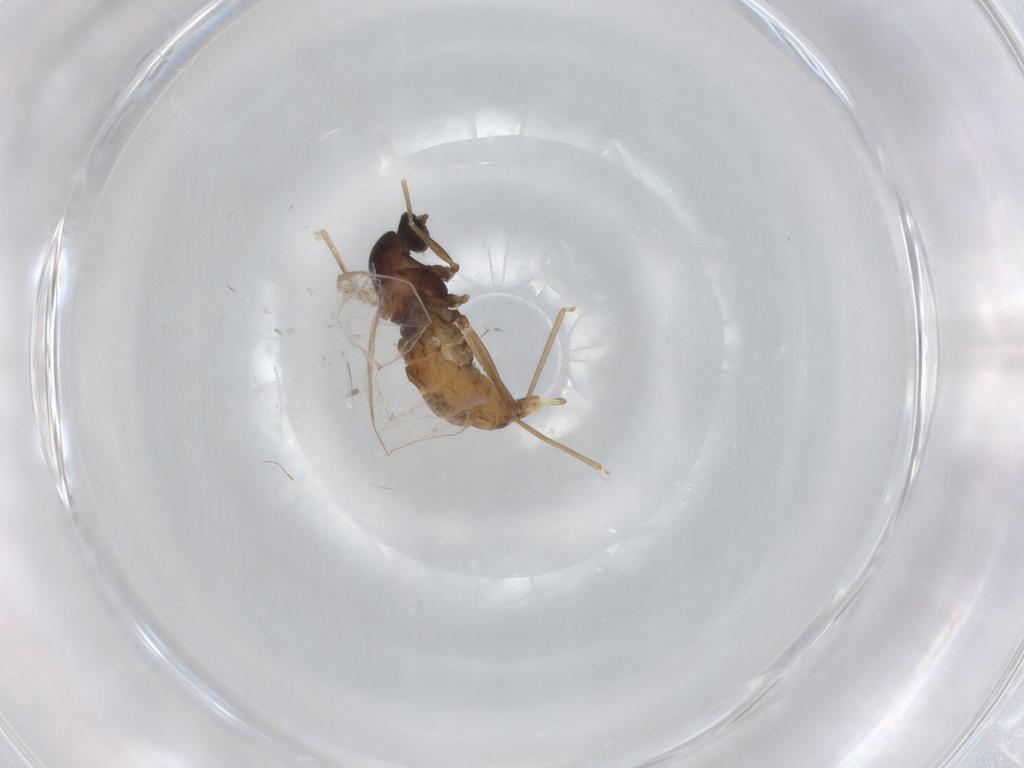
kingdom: Animalia
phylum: Arthropoda
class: Insecta
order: Diptera
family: Cecidomyiidae
